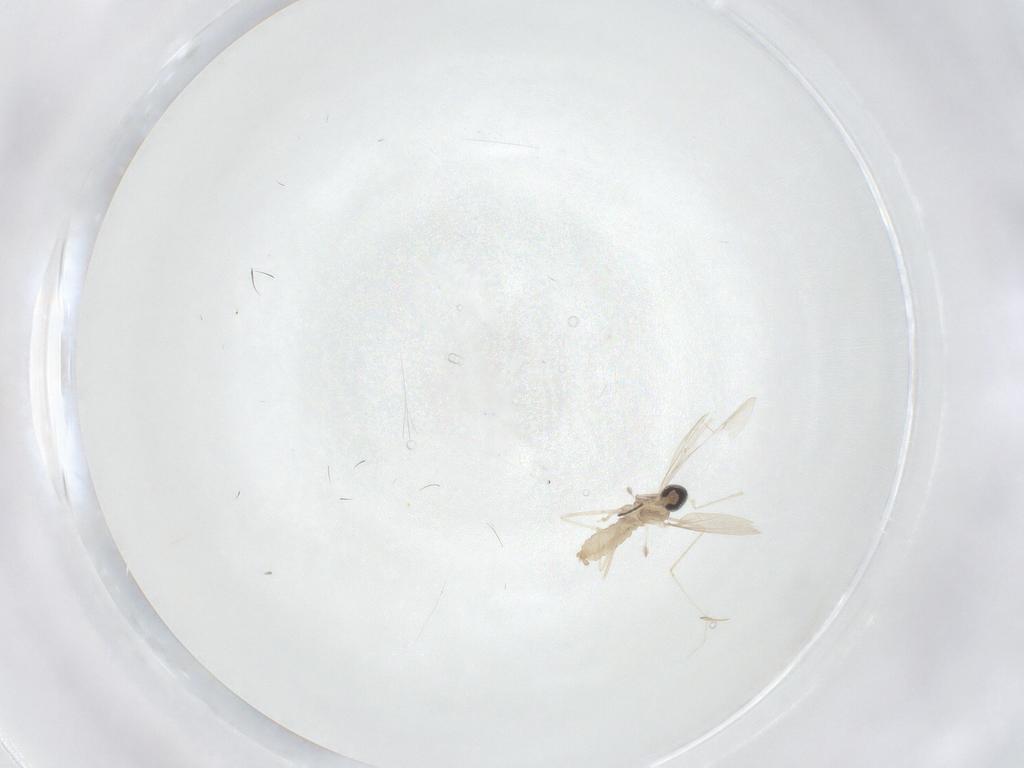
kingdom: Animalia
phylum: Arthropoda
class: Insecta
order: Diptera
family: Cecidomyiidae
